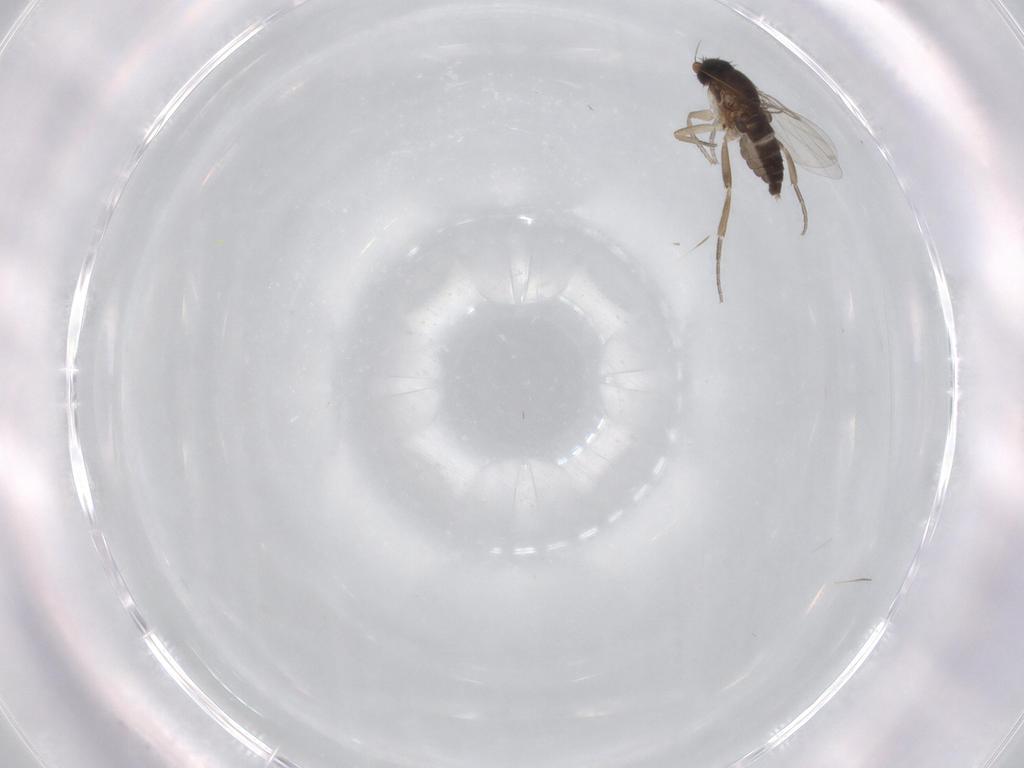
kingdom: Animalia
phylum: Arthropoda
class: Insecta
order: Diptera
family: Phoridae
